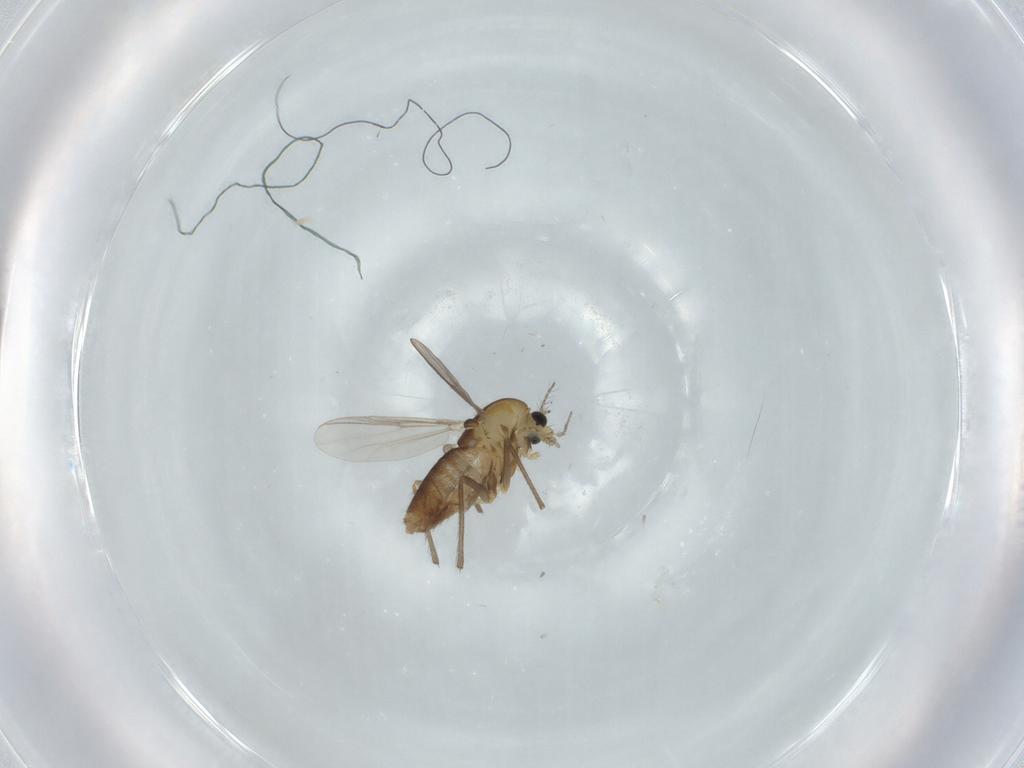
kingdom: Animalia
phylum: Arthropoda
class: Insecta
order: Diptera
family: Chironomidae
